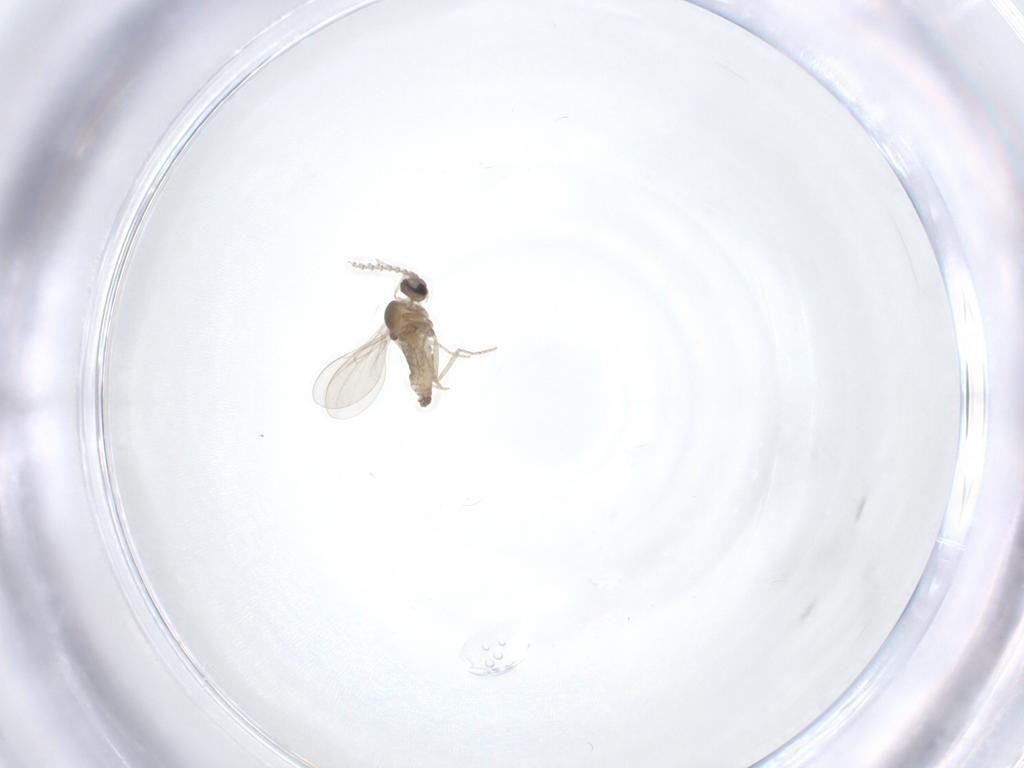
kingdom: Animalia
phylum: Arthropoda
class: Insecta
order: Diptera
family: Cecidomyiidae
